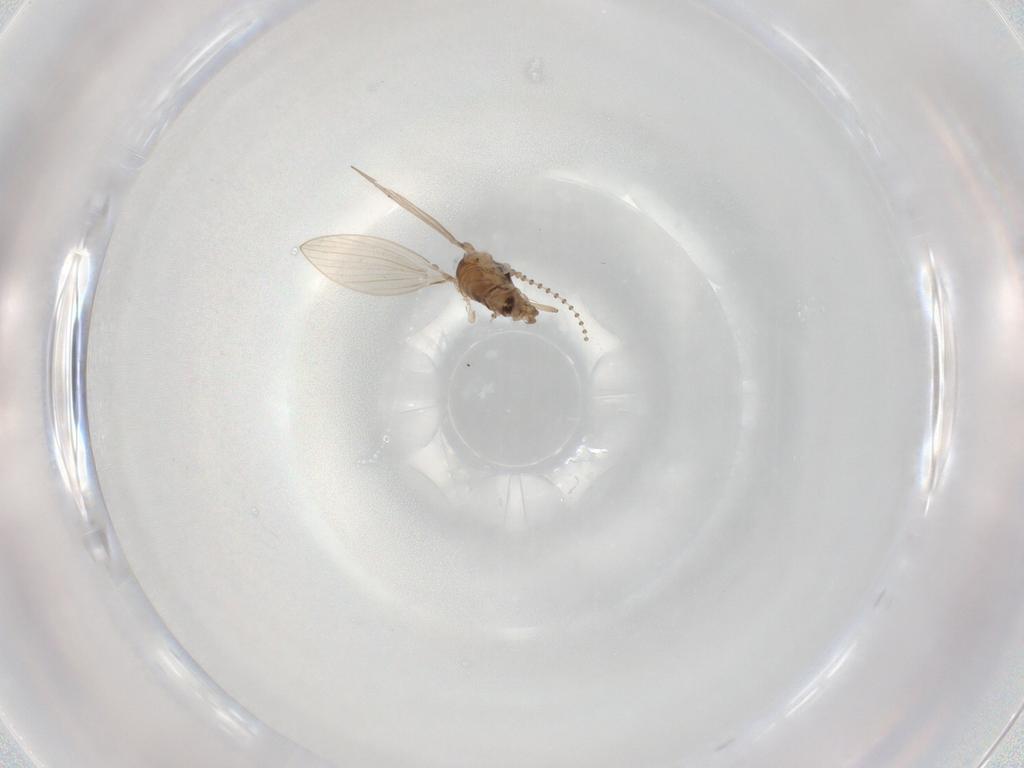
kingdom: Animalia
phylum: Arthropoda
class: Insecta
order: Diptera
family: Psychodidae
